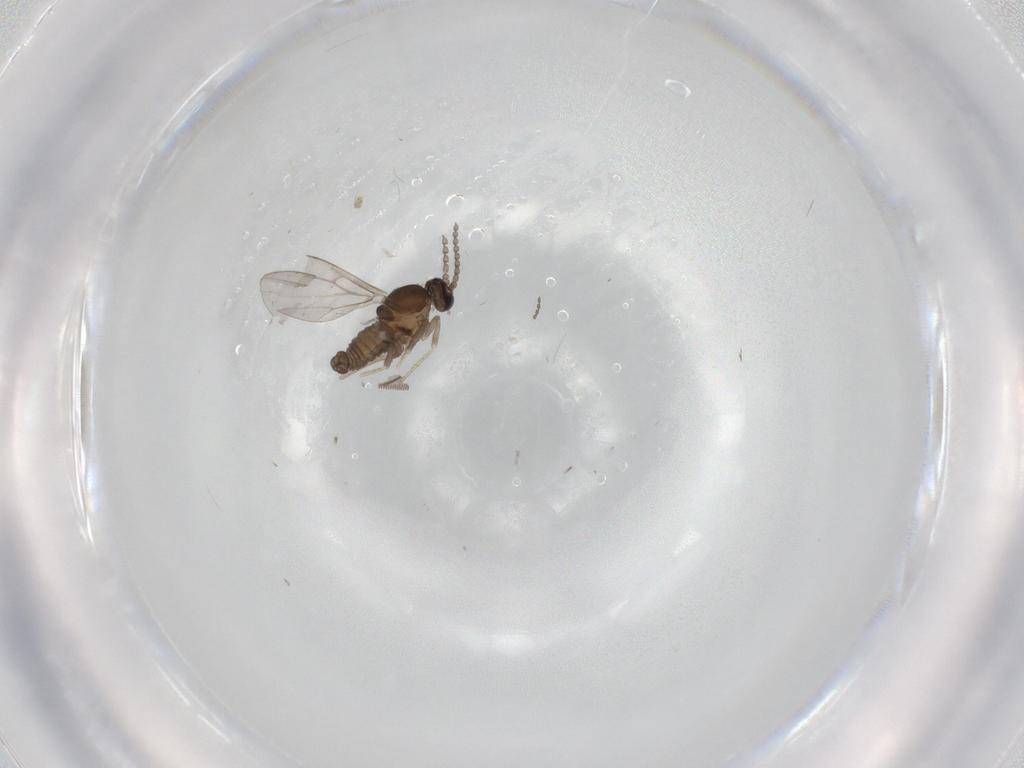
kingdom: Animalia
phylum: Arthropoda
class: Insecta
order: Diptera
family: Cecidomyiidae
